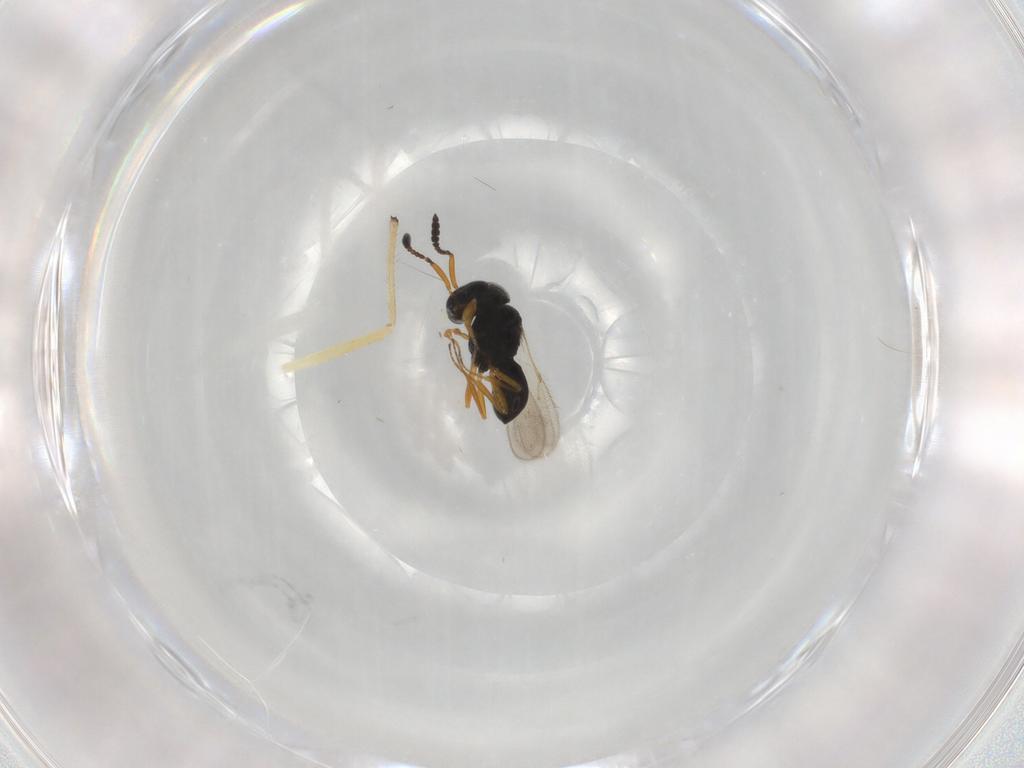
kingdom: Animalia
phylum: Arthropoda
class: Insecta
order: Hymenoptera
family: Scelionidae
